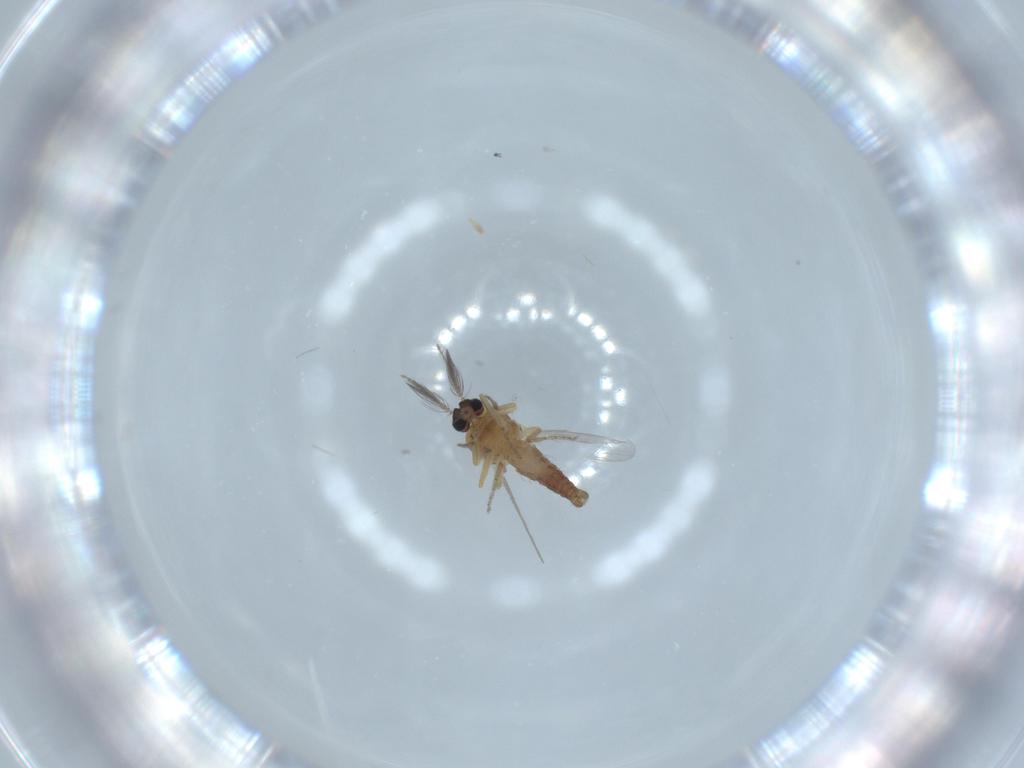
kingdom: Animalia
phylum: Arthropoda
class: Insecta
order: Diptera
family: Ceratopogonidae
